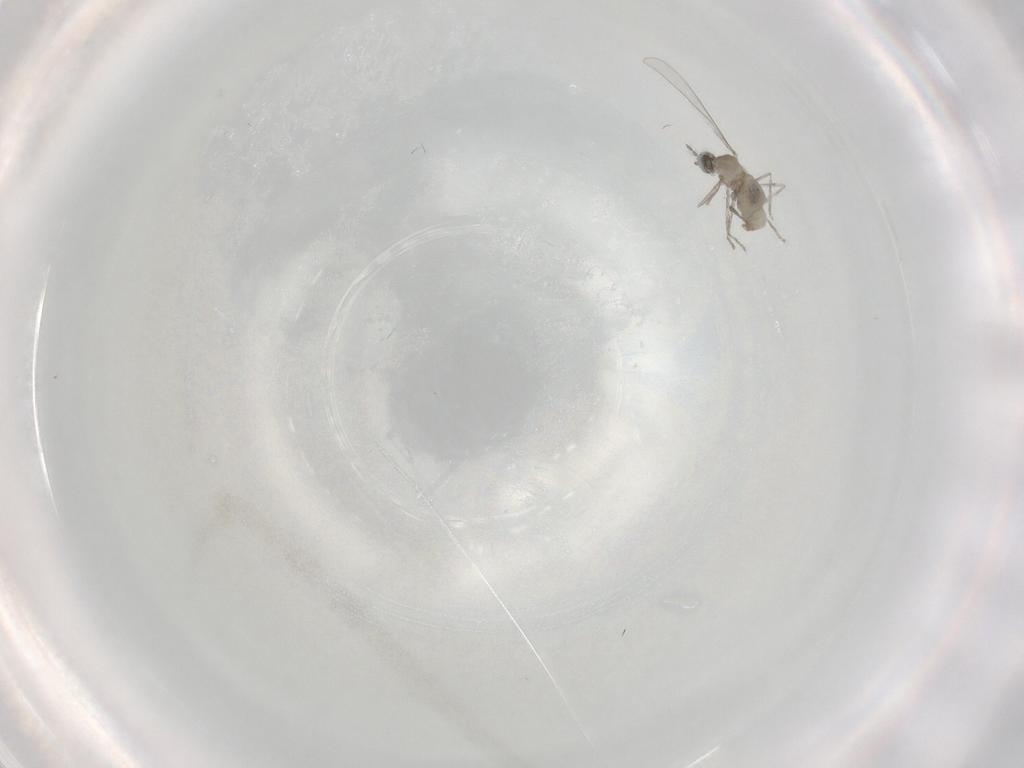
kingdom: Animalia
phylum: Arthropoda
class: Insecta
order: Diptera
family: Cecidomyiidae
